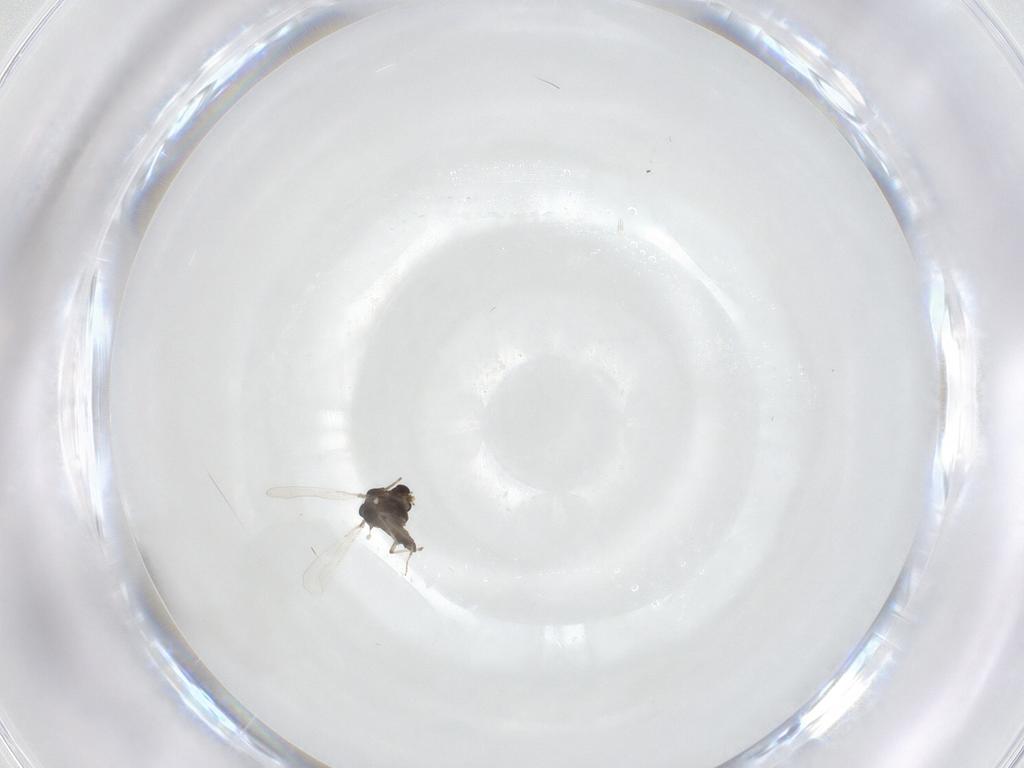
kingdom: Animalia
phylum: Arthropoda
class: Insecta
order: Diptera
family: Chironomidae
